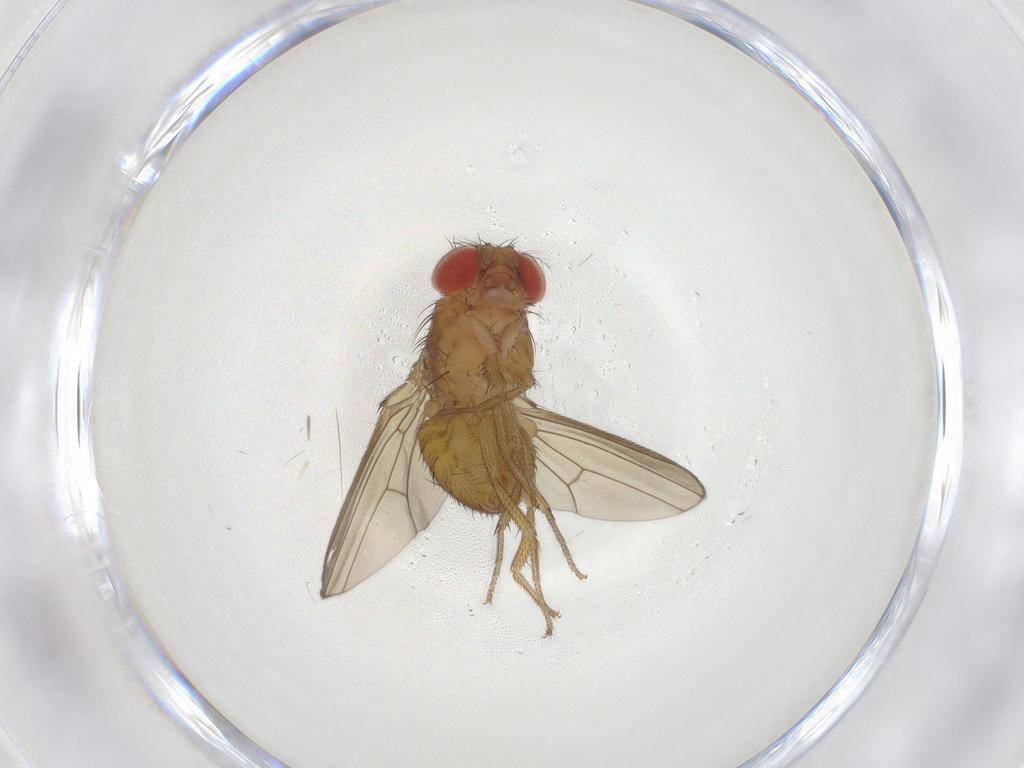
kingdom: Animalia
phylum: Arthropoda
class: Insecta
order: Diptera
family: Drosophilidae
